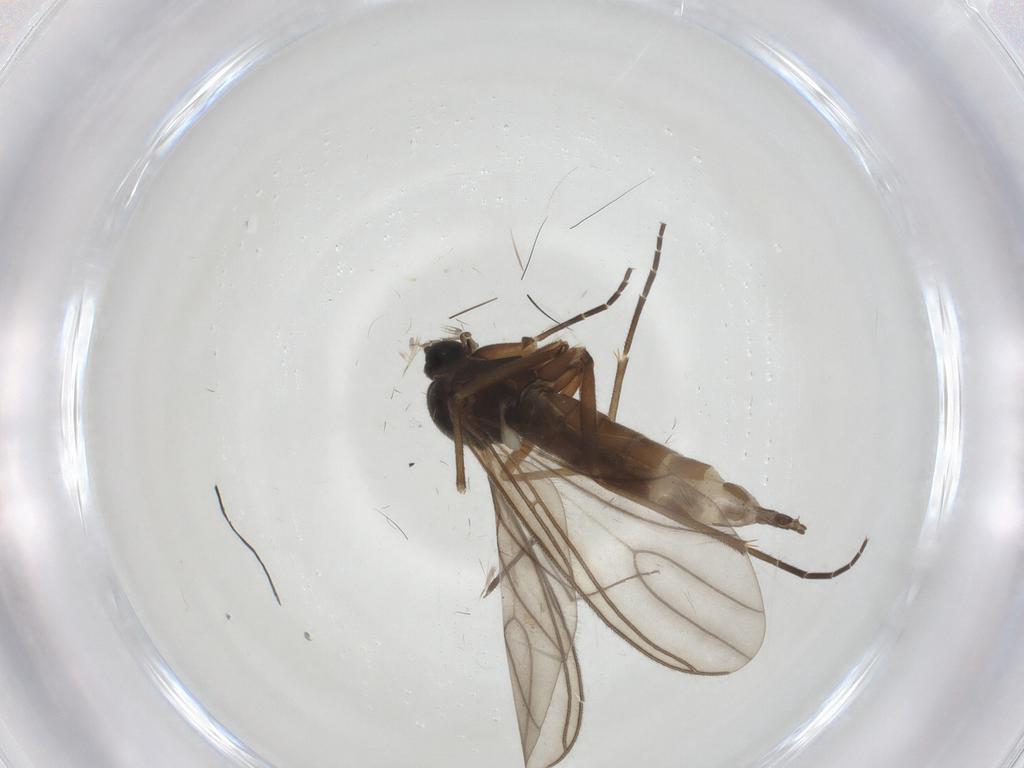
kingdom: Animalia
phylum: Arthropoda
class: Insecta
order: Diptera
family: Sciaridae
